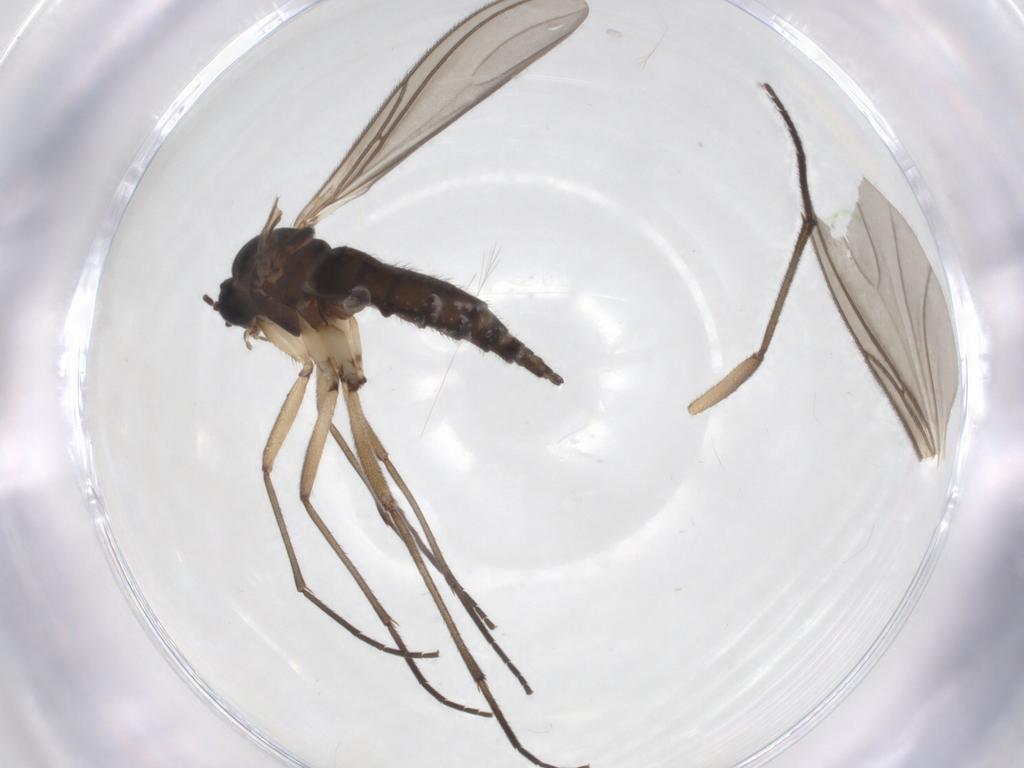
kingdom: Animalia
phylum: Arthropoda
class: Insecta
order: Diptera
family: Sciaridae
